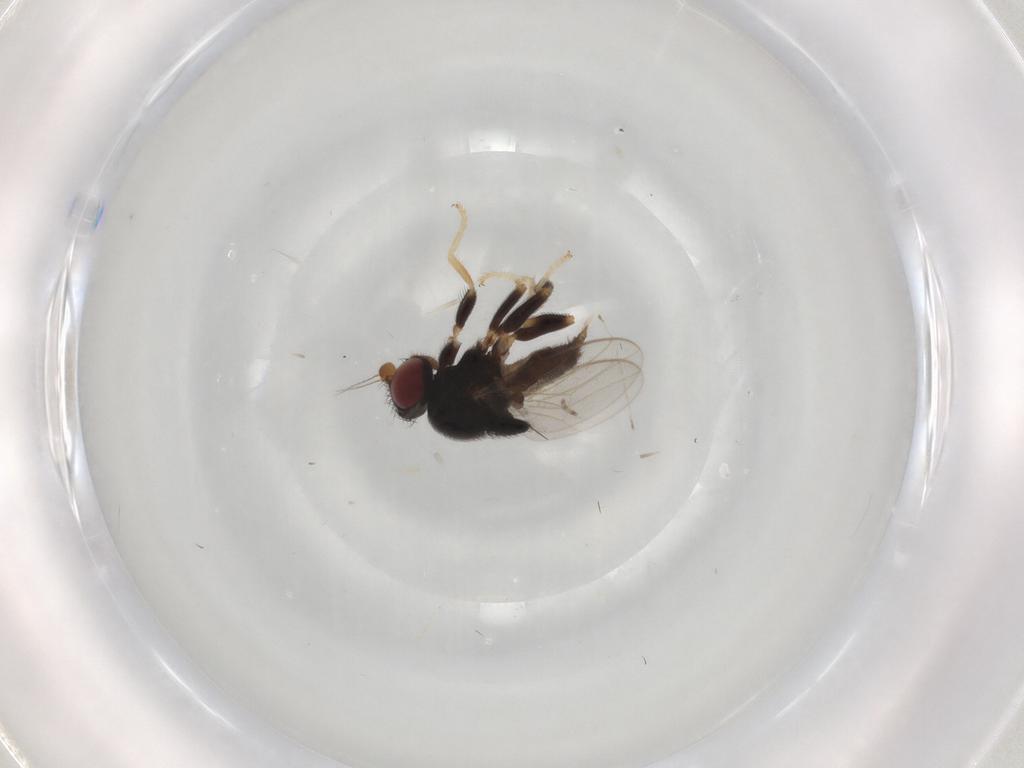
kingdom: Animalia
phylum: Arthropoda
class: Insecta
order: Diptera
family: Chloropidae
